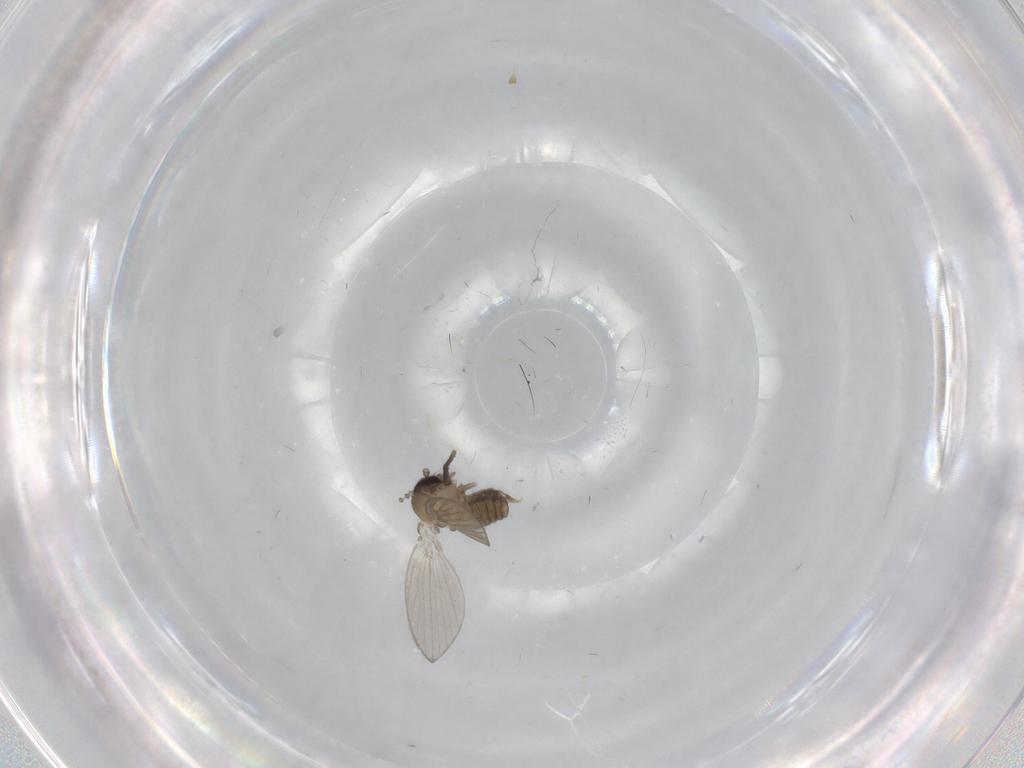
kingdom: Animalia
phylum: Arthropoda
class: Insecta
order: Diptera
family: Psychodidae
